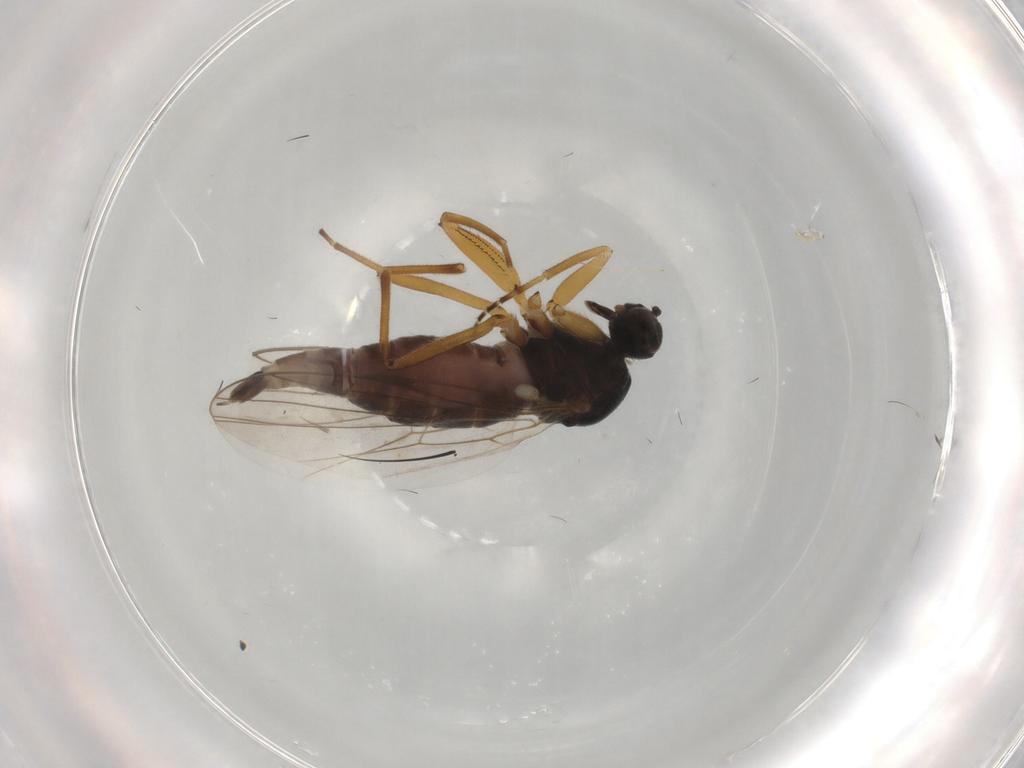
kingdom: Animalia
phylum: Arthropoda
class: Insecta
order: Diptera
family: Hybotidae
